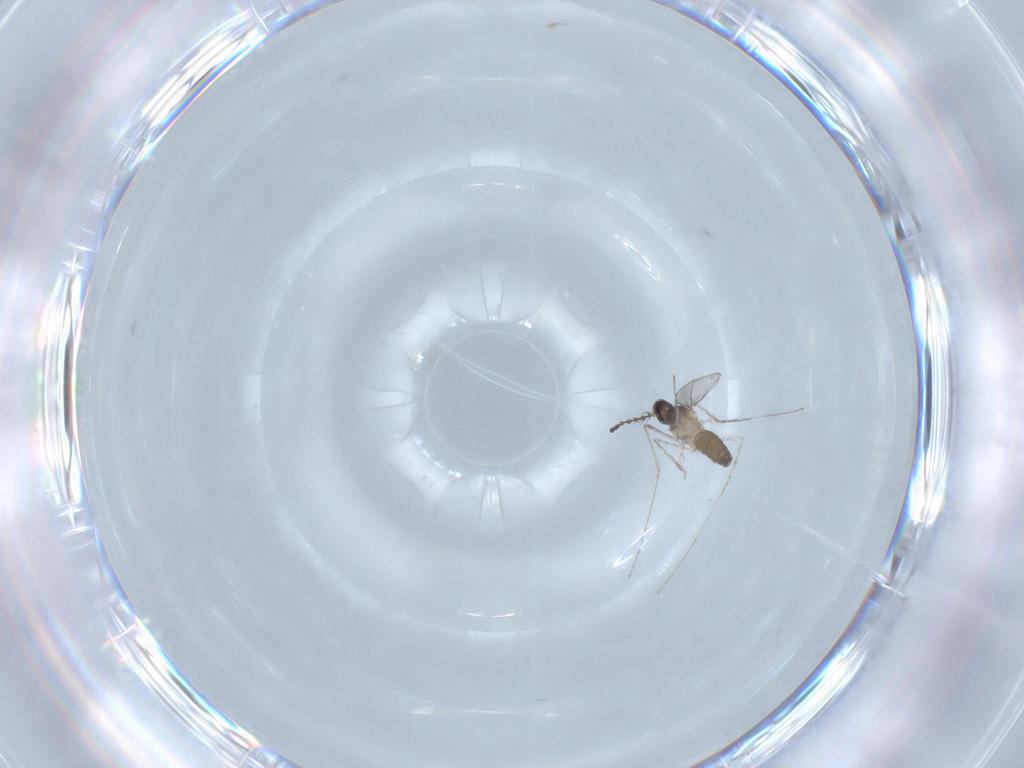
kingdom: Animalia
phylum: Arthropoda
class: Insecta
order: Diptera
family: Cecidomyiidae
